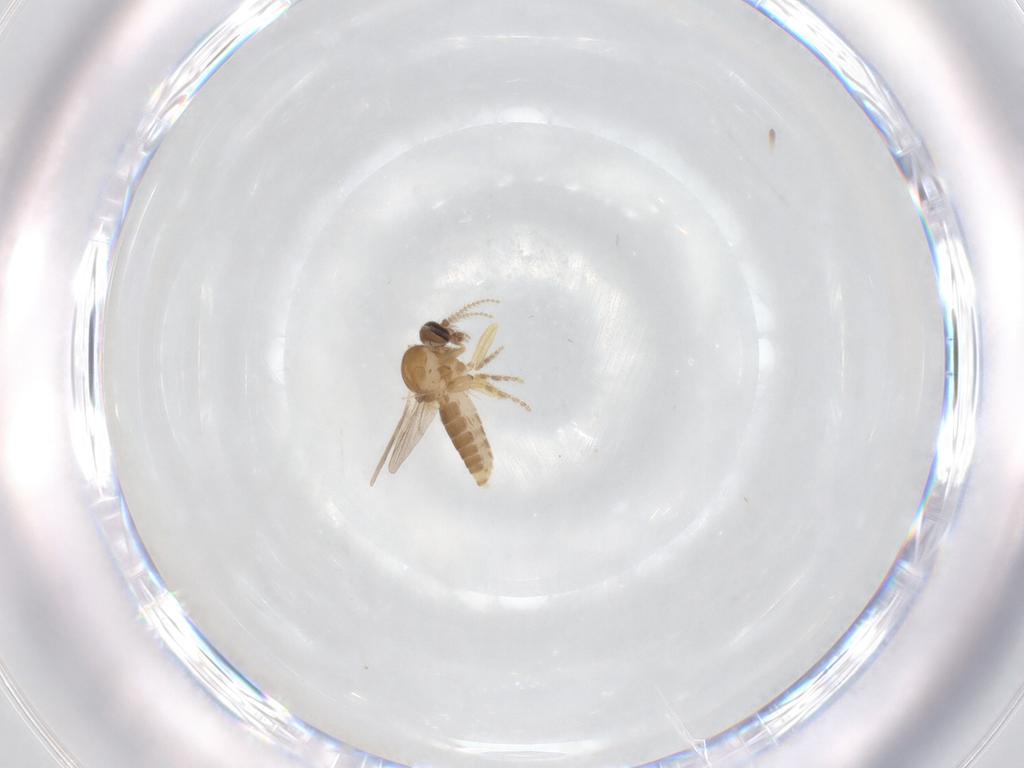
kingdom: Animalia
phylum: Arthropoda
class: Insecta
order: Diptera
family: Ceratopogonidae
